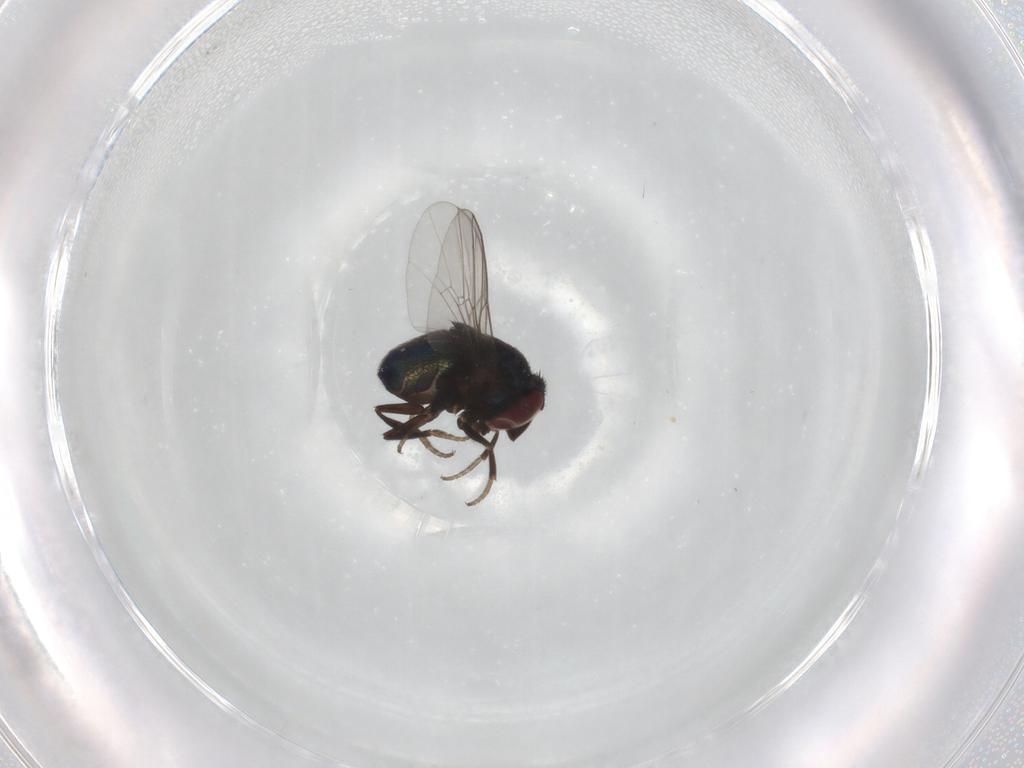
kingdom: Animalia
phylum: Arthropoda
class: Insecta
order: Diptera
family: Cryptochetidae
